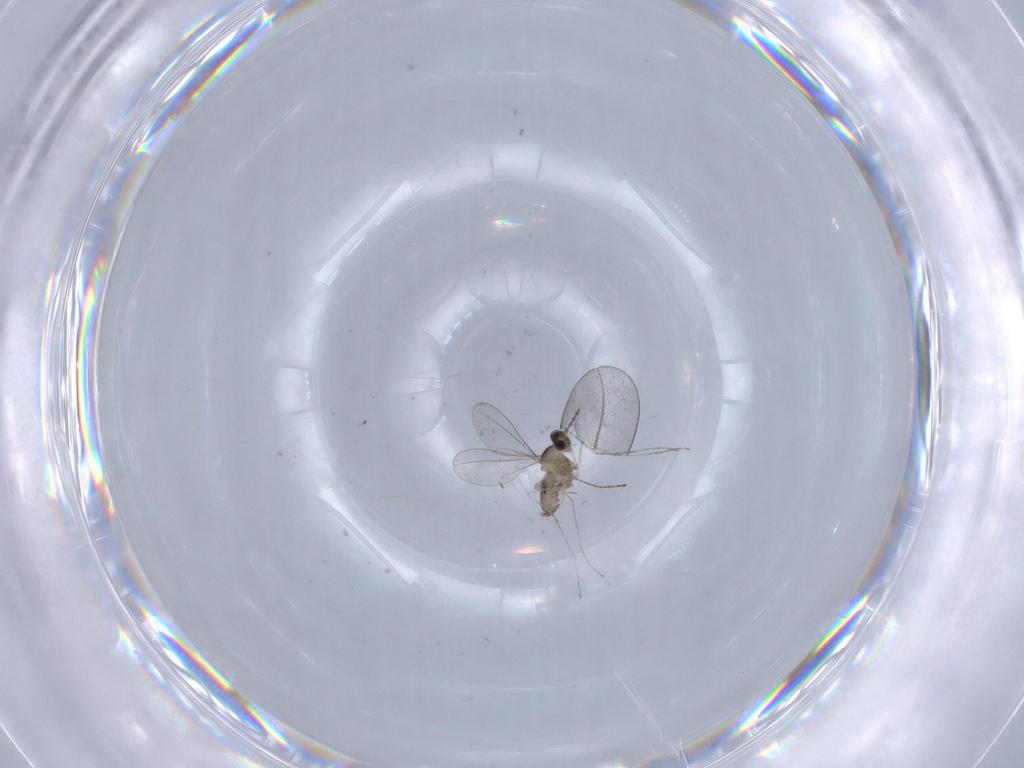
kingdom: Animalia
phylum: Arthropoda
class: Insecta
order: Diptera
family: Cecidomyiidae
